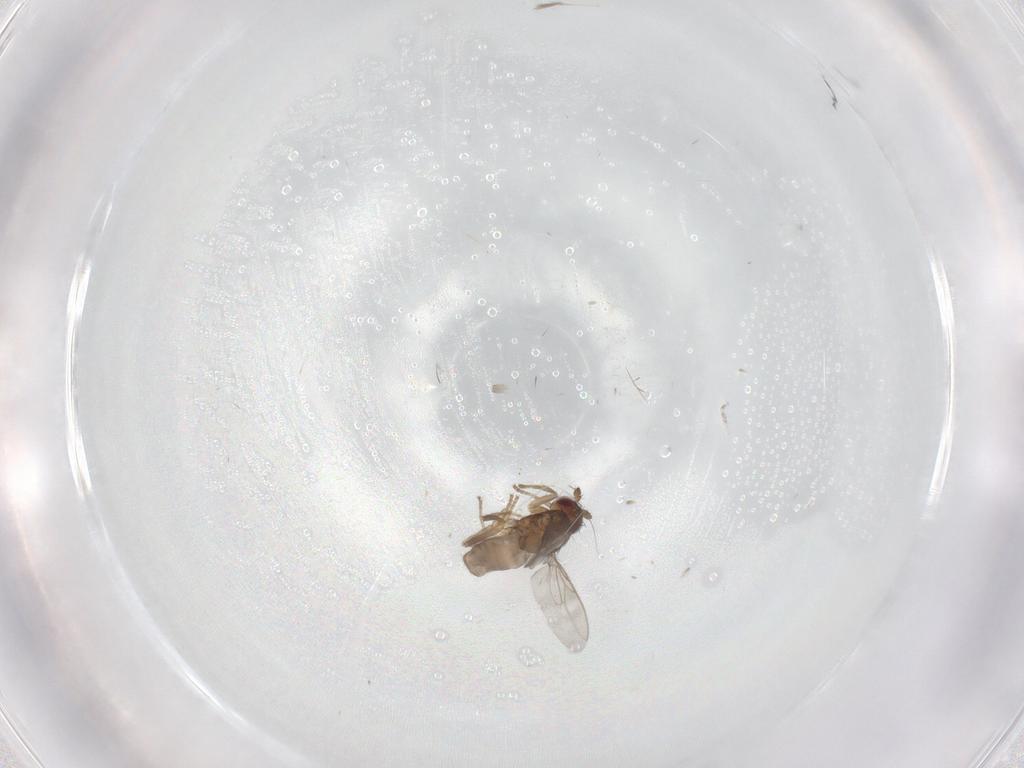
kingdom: Animalia
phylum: Arthropoda
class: Insecta
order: Diptera
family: Sphaeroceridae
